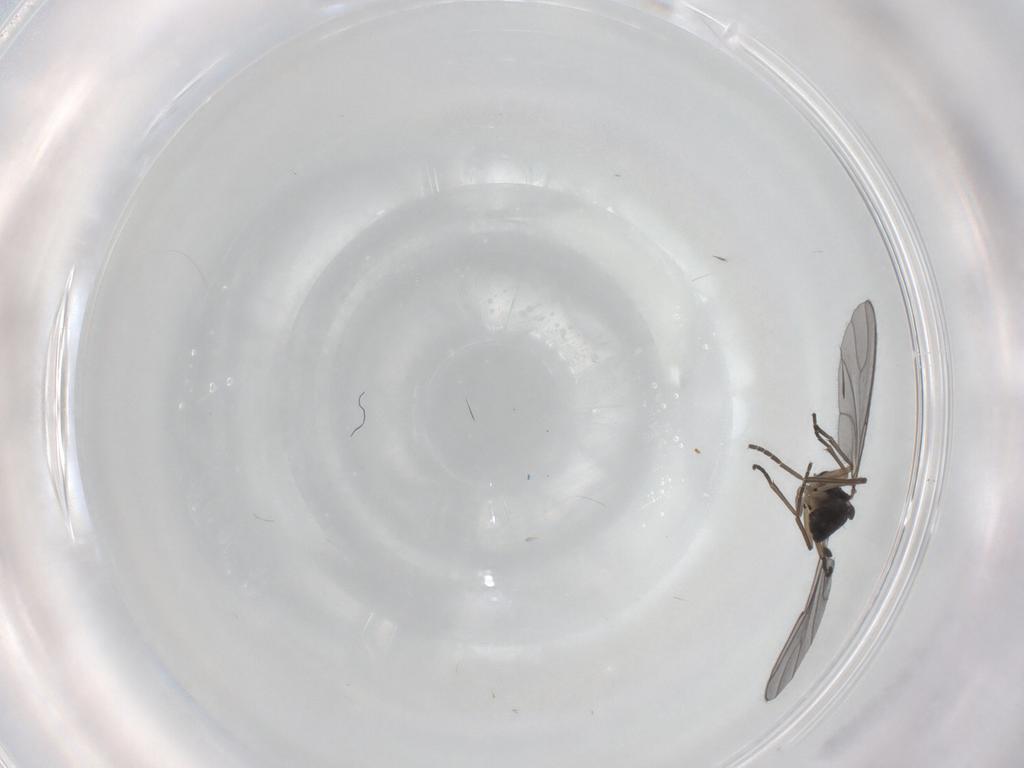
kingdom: Animalia
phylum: Arthropoda
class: Insecta
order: Diptera
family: Sciaridae
